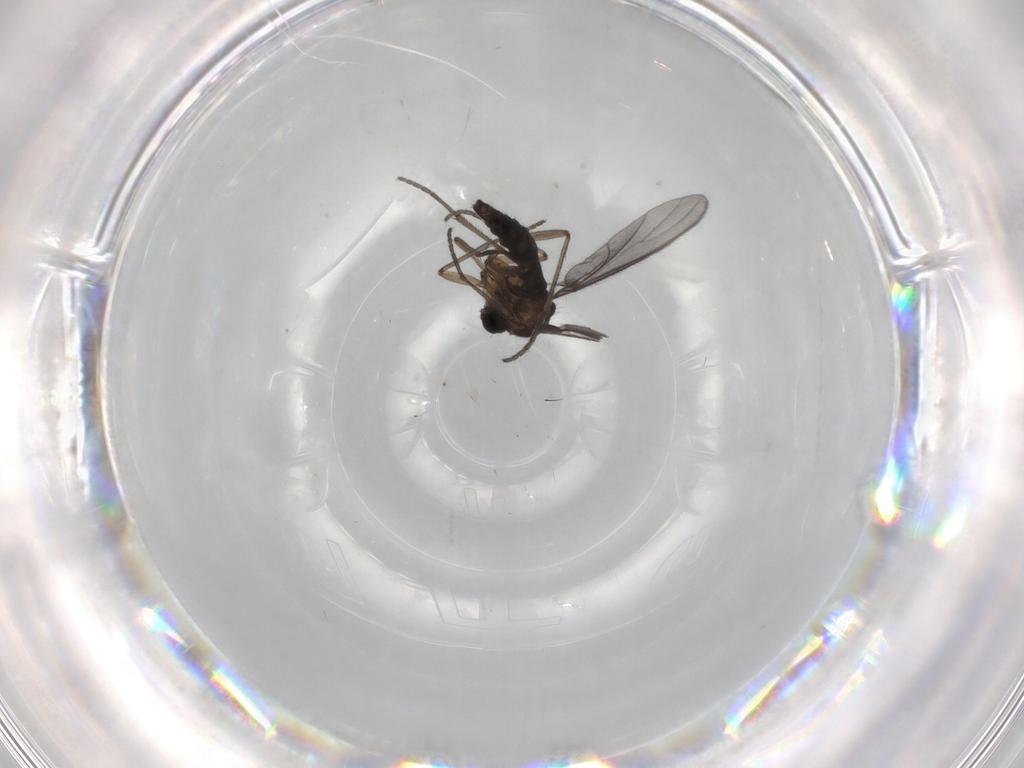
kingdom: Animalia
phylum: Arthropoda
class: Insecta
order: Diptera
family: Sciaridae
